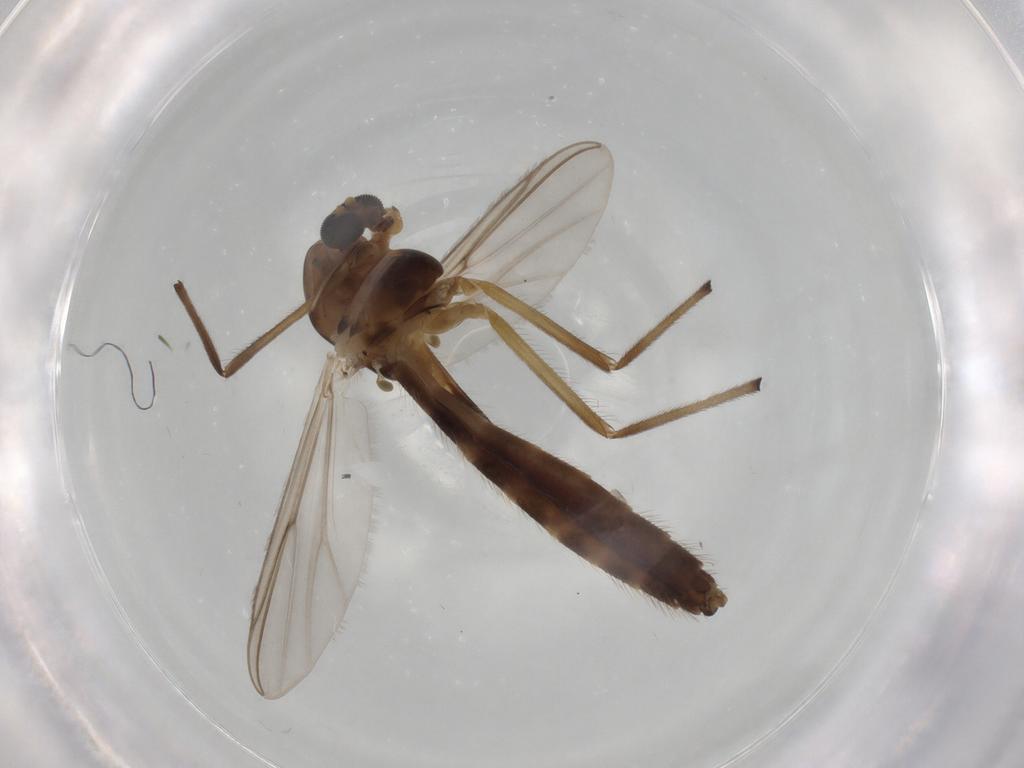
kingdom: Animalia
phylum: Arthropoda
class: Insecta
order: Diptera
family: Chironomidae
